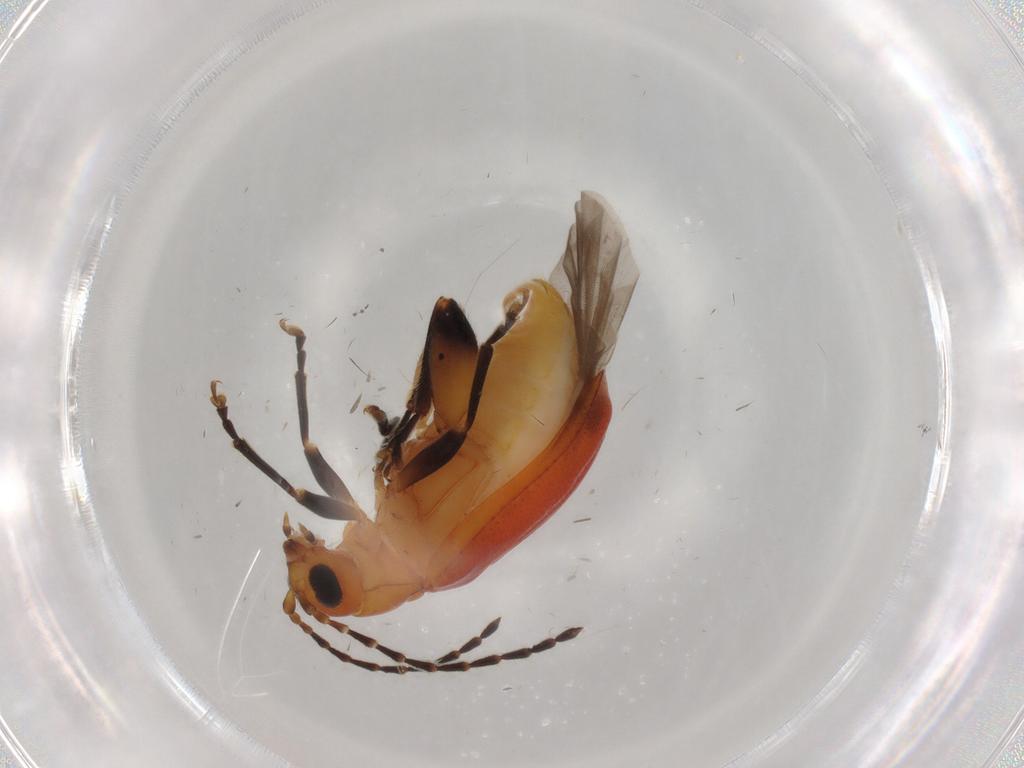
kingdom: Animalia
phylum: Arthropoda
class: Insecta
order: Coleoptera
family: Chrysomelidae
